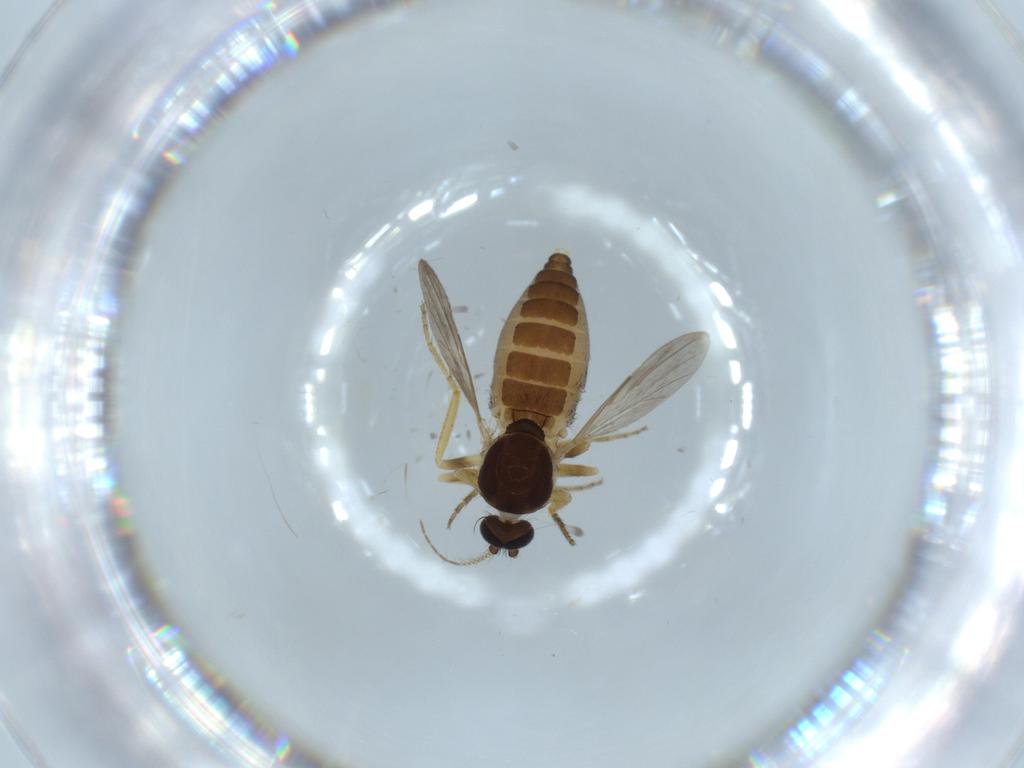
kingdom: Animalia
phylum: Arthropoda
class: Insecta
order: Diptera
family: Ceratopogonidae
